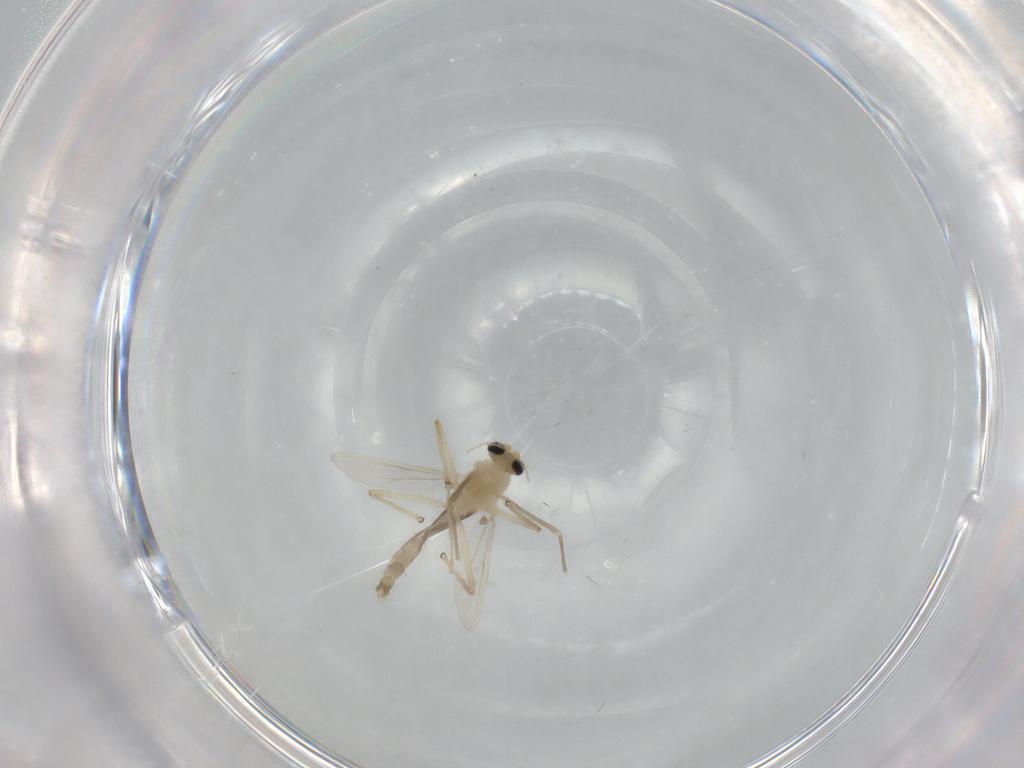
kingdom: Animalia
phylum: Arthropoda
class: Insecta
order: Diptera
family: Chironomidae
